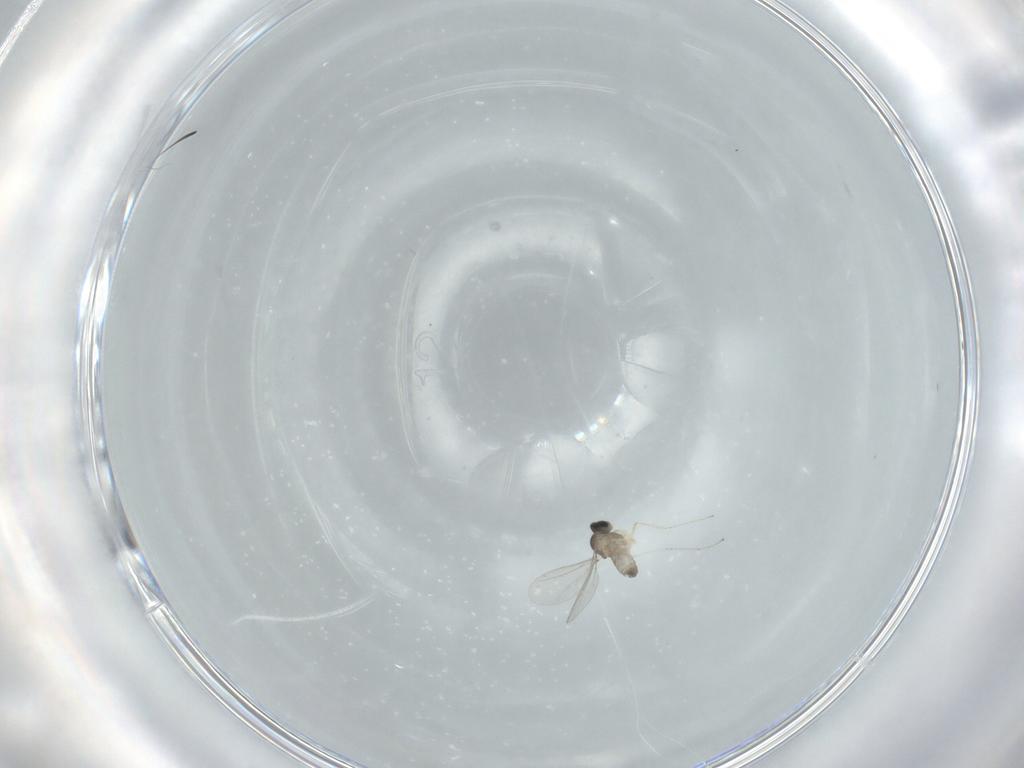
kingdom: Animalia
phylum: Arthropoda
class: Insecta
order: Diptera
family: Cecidomyiidae
